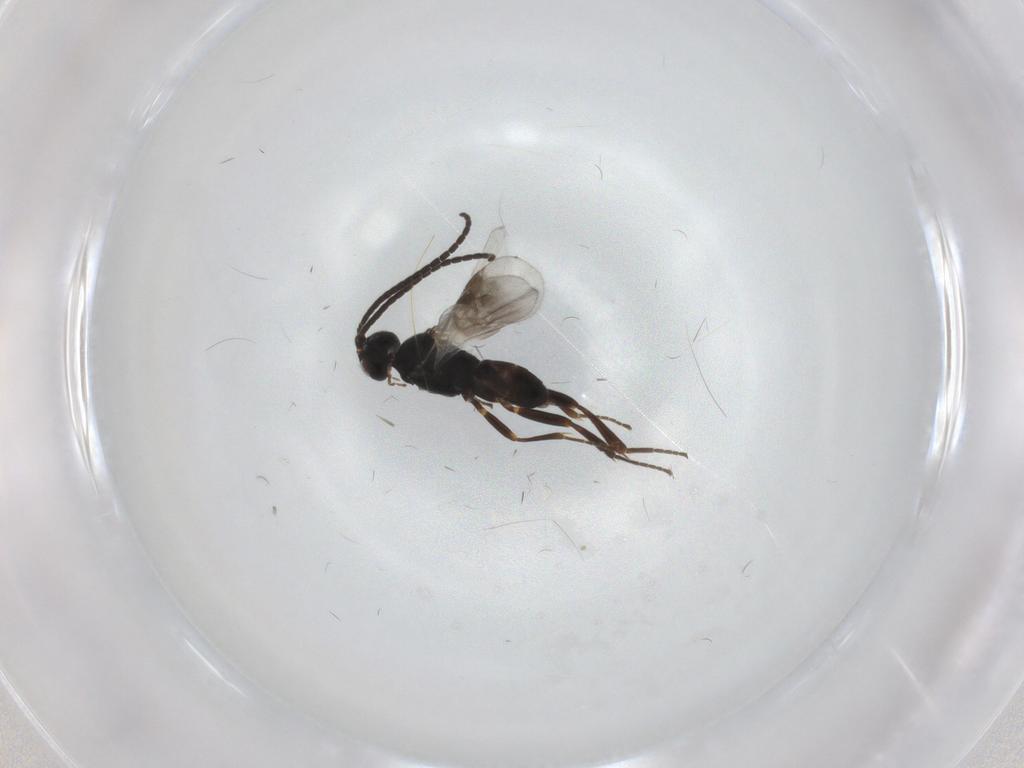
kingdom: Animalia
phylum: Arthropoda
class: Insecta
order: Hymenoptera
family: Braconidae
